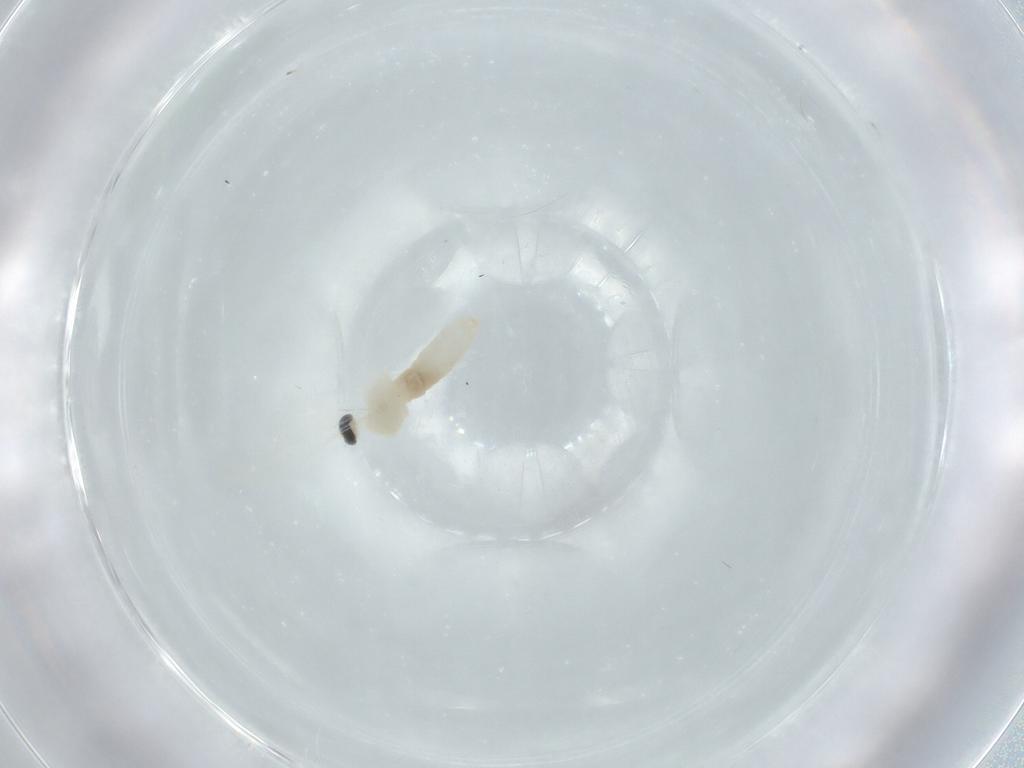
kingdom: Animalia
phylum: Arthropoda
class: Insecta
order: Diptera
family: Cecidomyiidae
